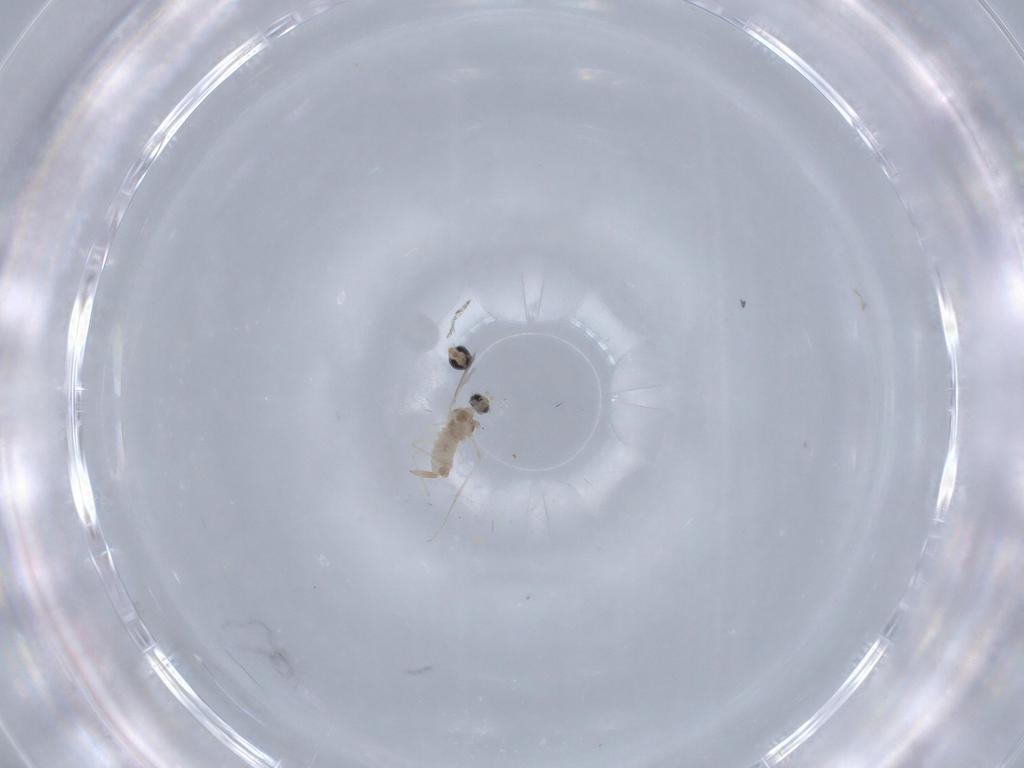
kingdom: Animalia
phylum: Arthropoda
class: Insecta
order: Diptera
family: Cecidomyiidae
